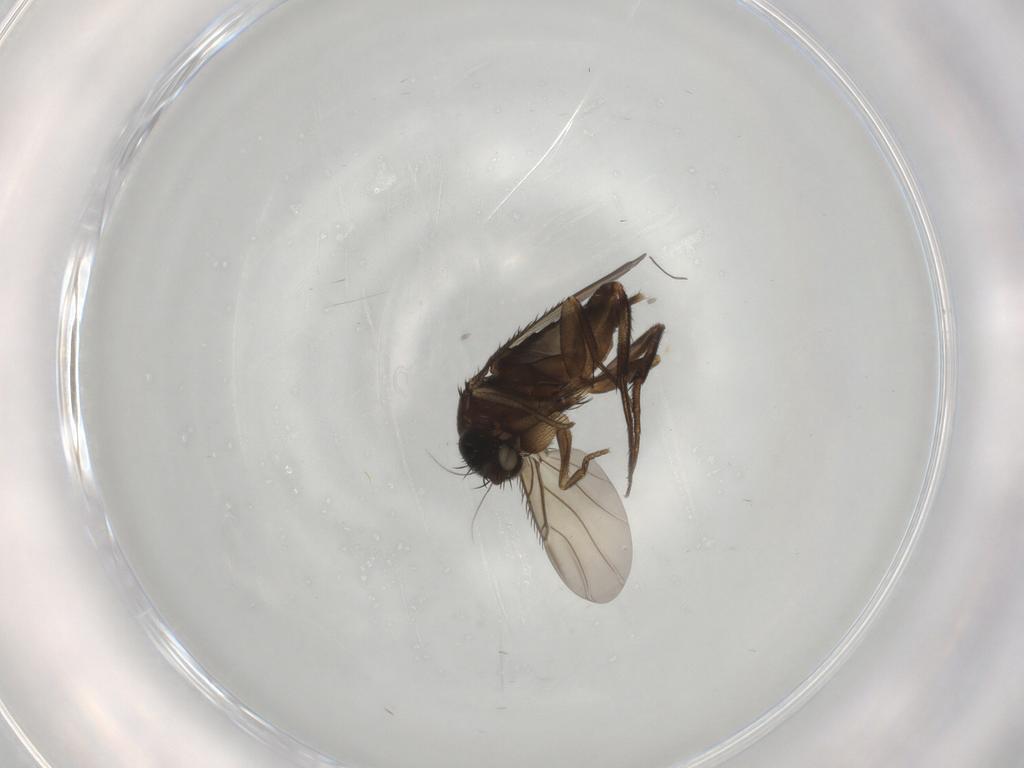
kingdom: Animalia
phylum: Arthropoda
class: Insecta
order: Diptera
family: Phoridae
